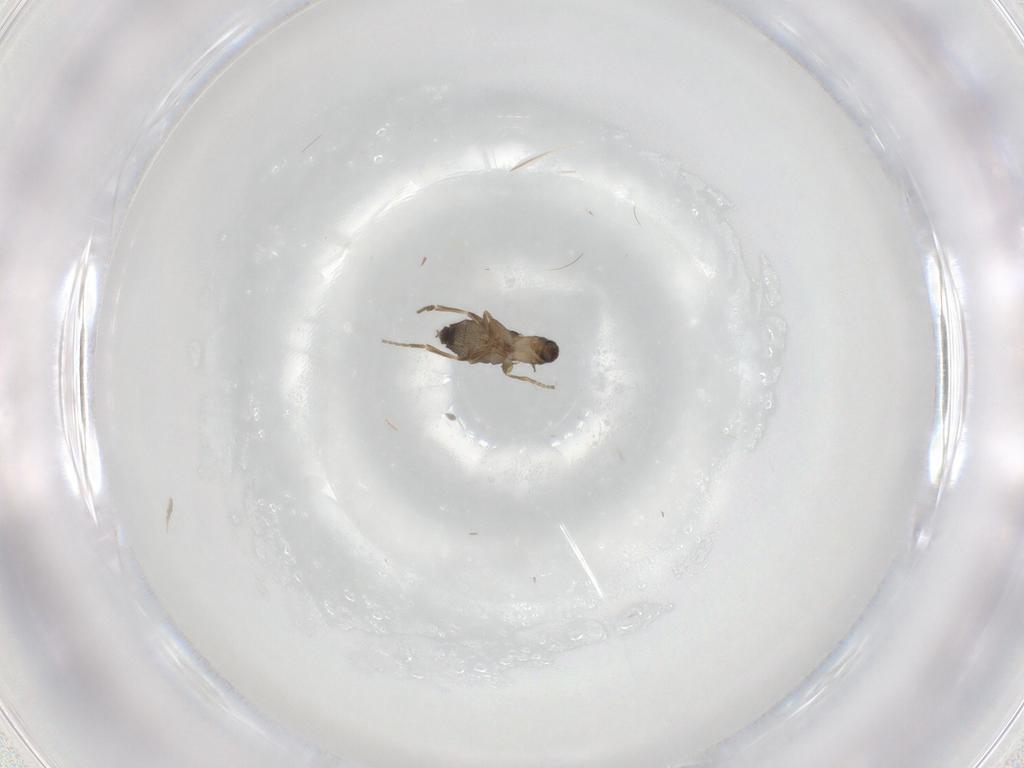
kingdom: Animalia
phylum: Arthropoda
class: Insecta
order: Diptera
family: Phoridae
